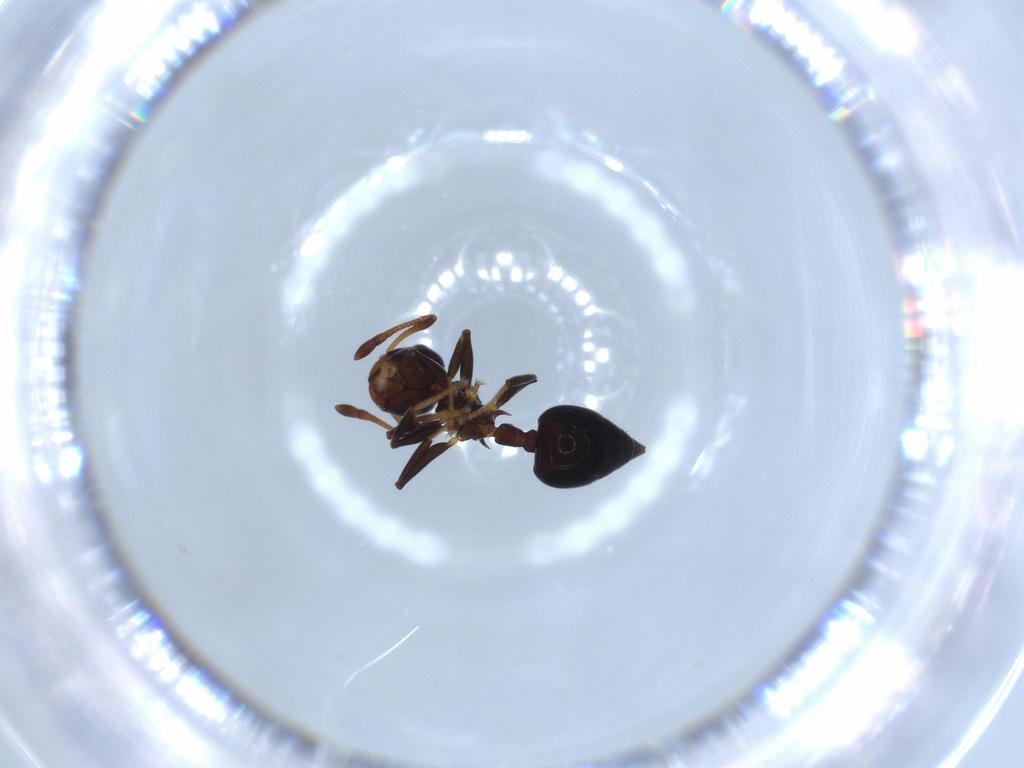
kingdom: Animalia
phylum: Arthropoda
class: Insecta
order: Hymenoptera
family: Formicidae
